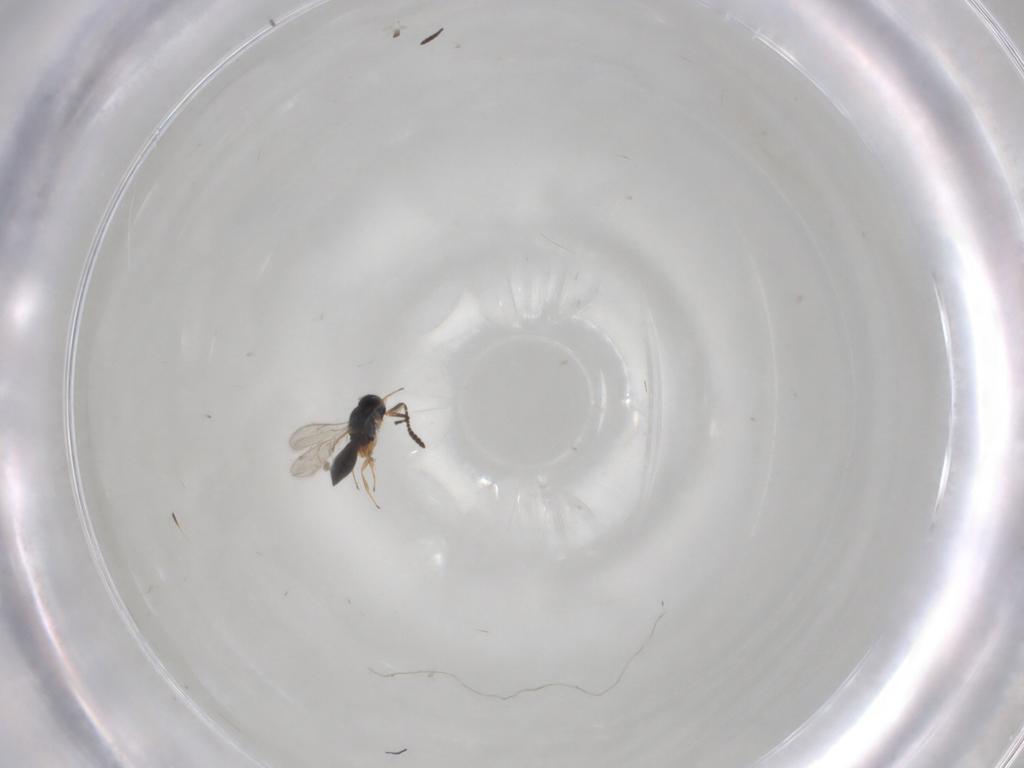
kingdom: Animalia
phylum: Arthropoda
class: Insecta
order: Hymenoptera
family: Scelionidae
